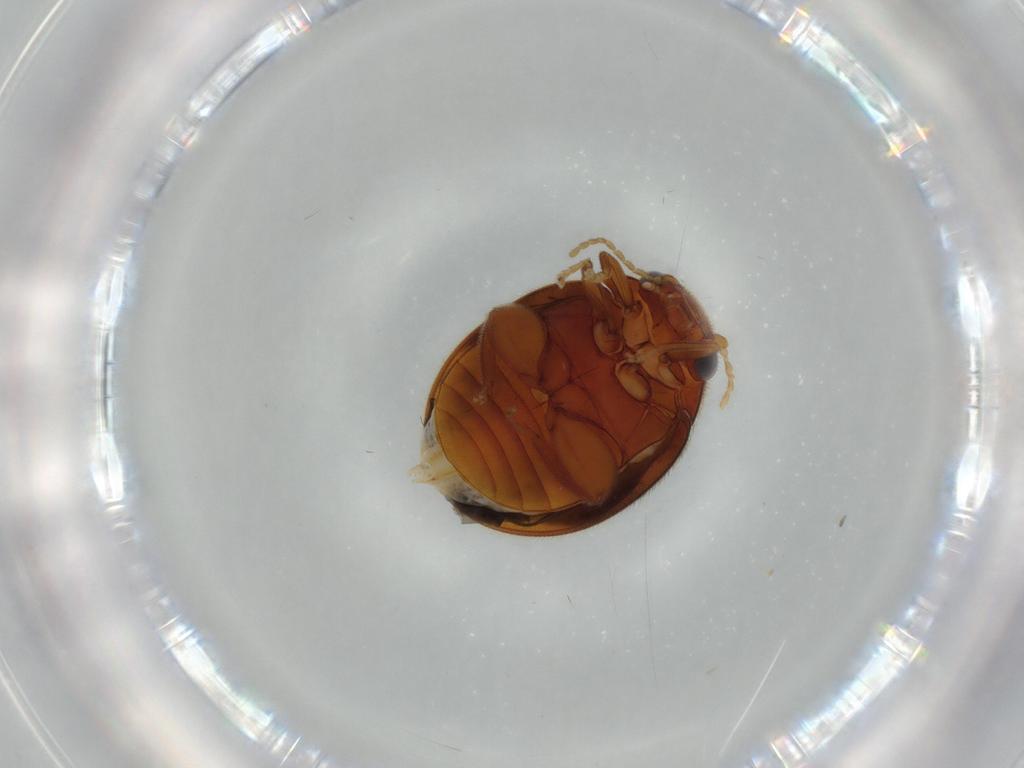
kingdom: Animalia
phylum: Arthropoda
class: Insecta
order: Coleoptera
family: Scirtidae
